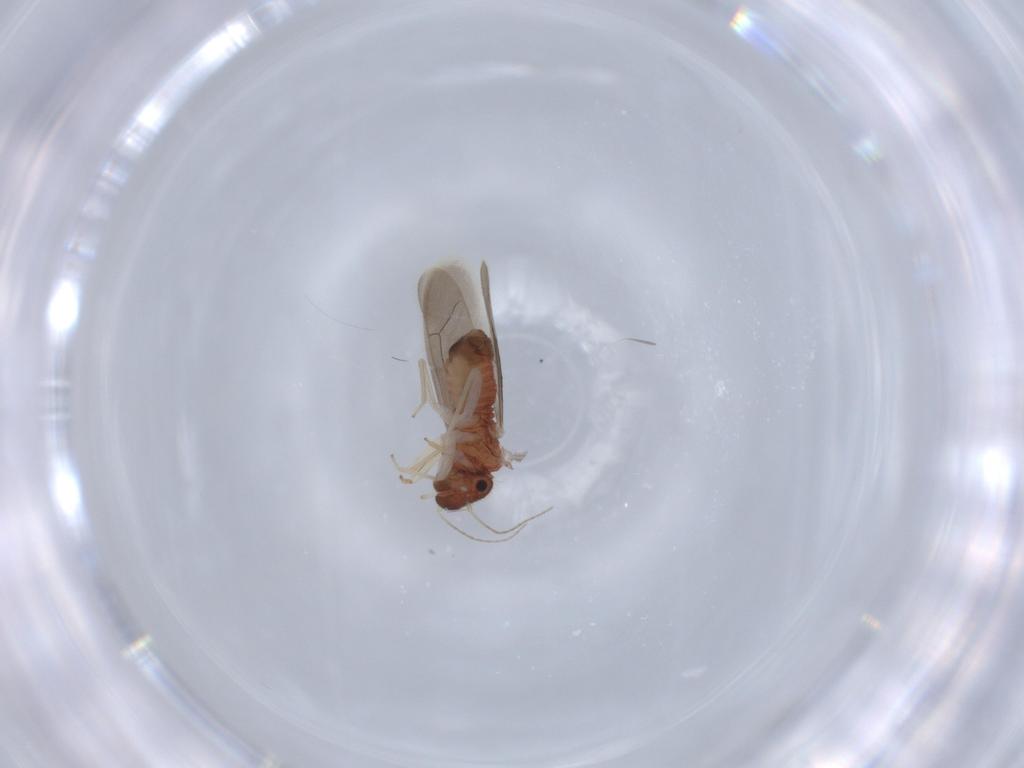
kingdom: Animalia
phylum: Arthropoda
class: Insecta
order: Psocodea
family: Archipsocidae
